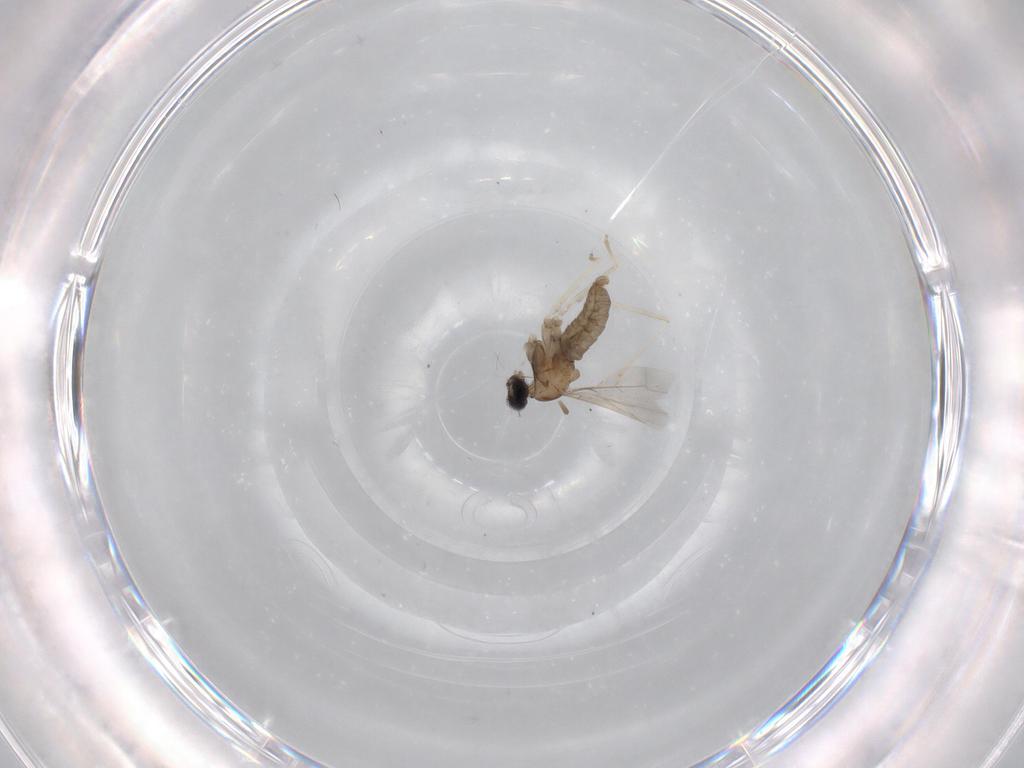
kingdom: Animalia
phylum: Arthropoda
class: Insecta
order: Diptera
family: Cecidomyiidae
